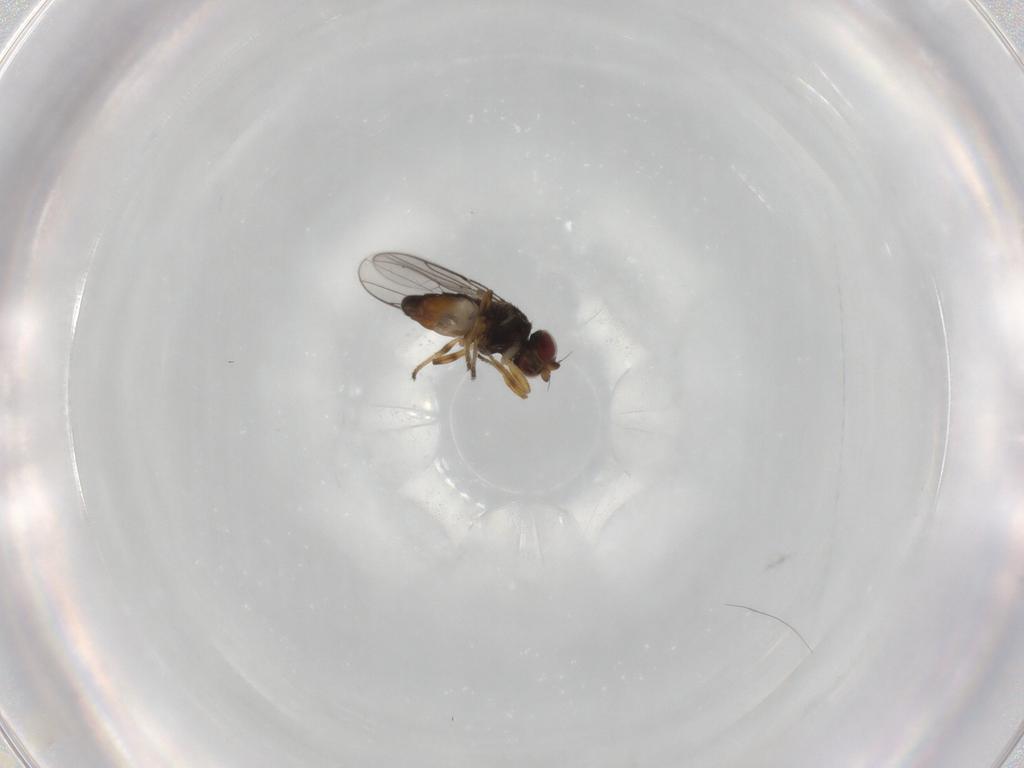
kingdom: Animalia
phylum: Arthropoda
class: Insecta
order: Diptera
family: Chloropidae
